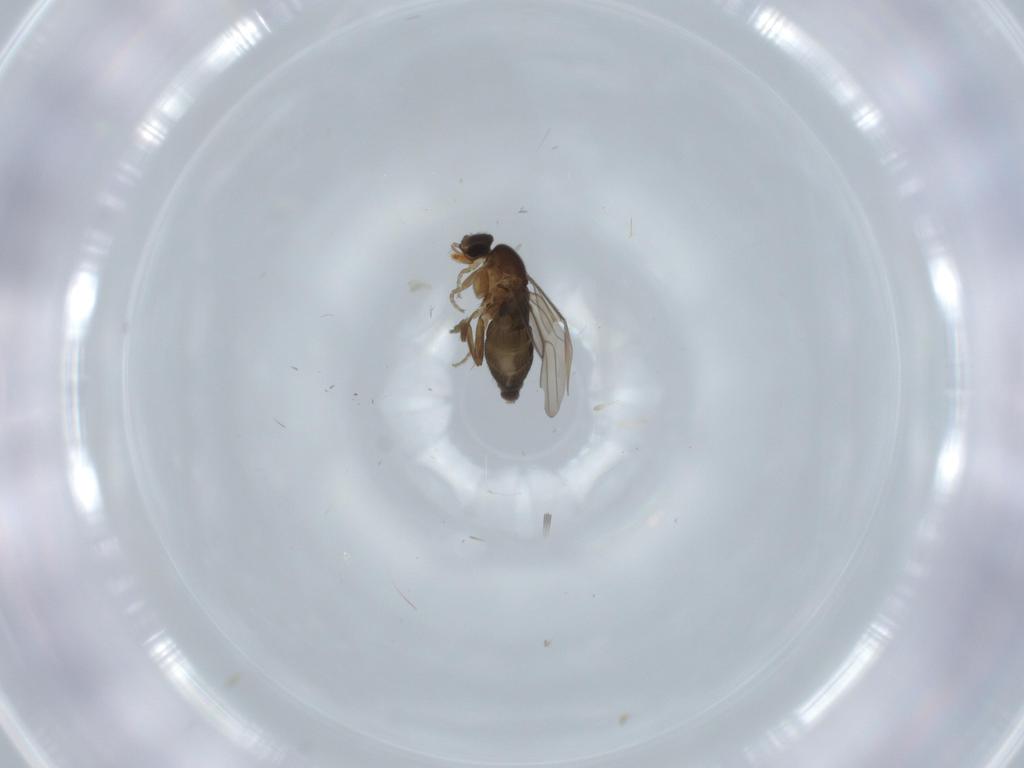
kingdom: Animalia
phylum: Arthropoda
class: Insecta
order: Diptera
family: Phoridae
